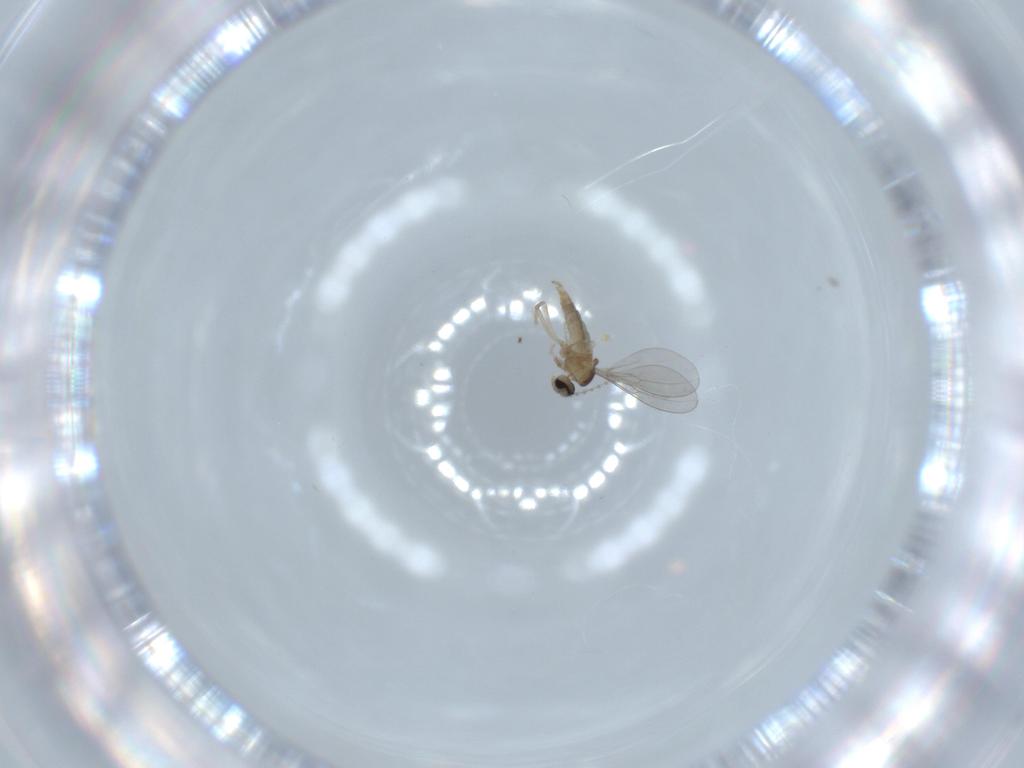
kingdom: Animalia
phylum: Arthropoda
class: Insecta
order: Diptera
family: Cecidomyiidae
